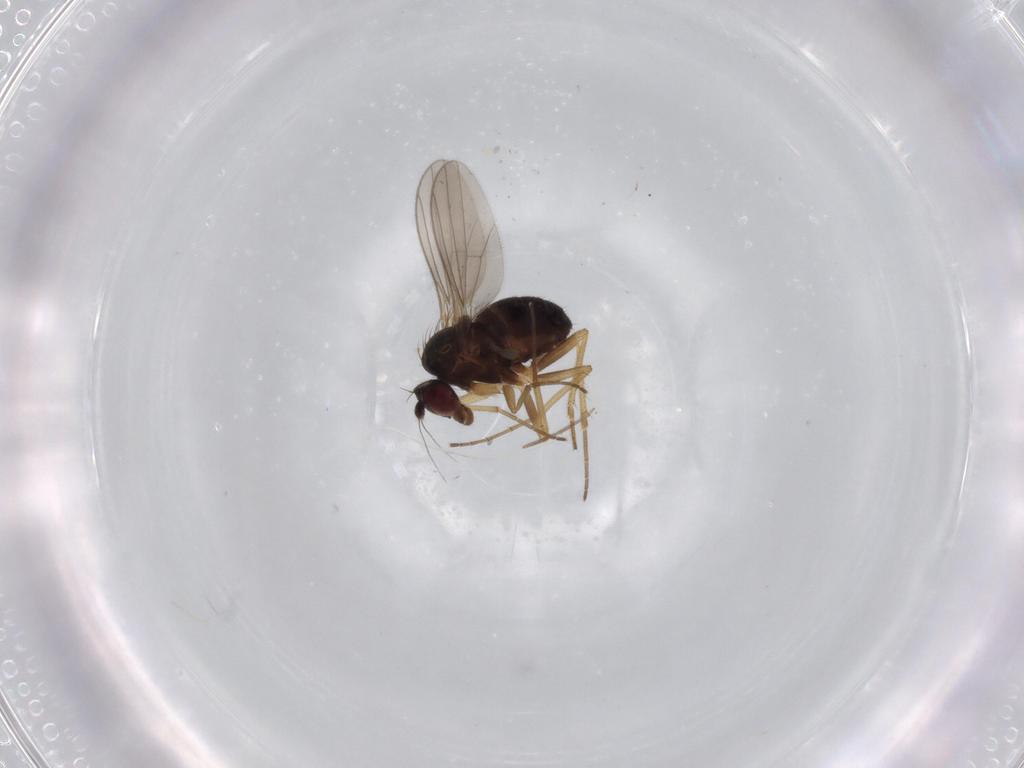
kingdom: Animalia
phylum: Arthropoda
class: Insecta
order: Diptera
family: Dolichopodidae
